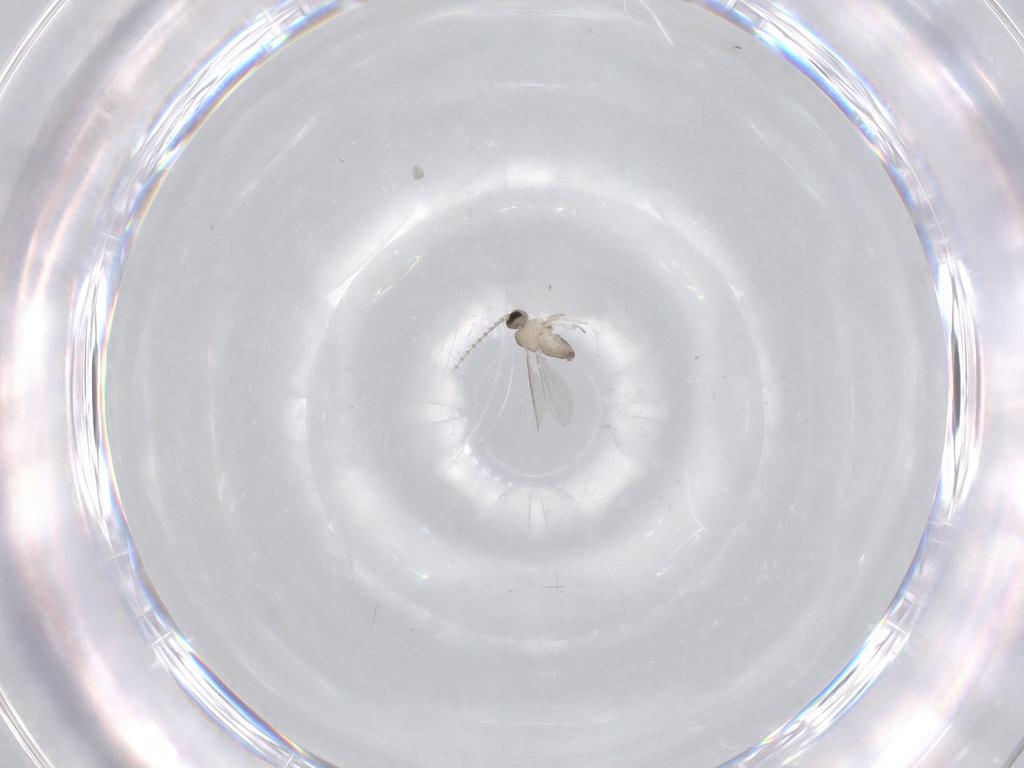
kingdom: Animalia
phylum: Arthropoda
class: Insecta
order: Diptera
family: Cecidomyiidae
